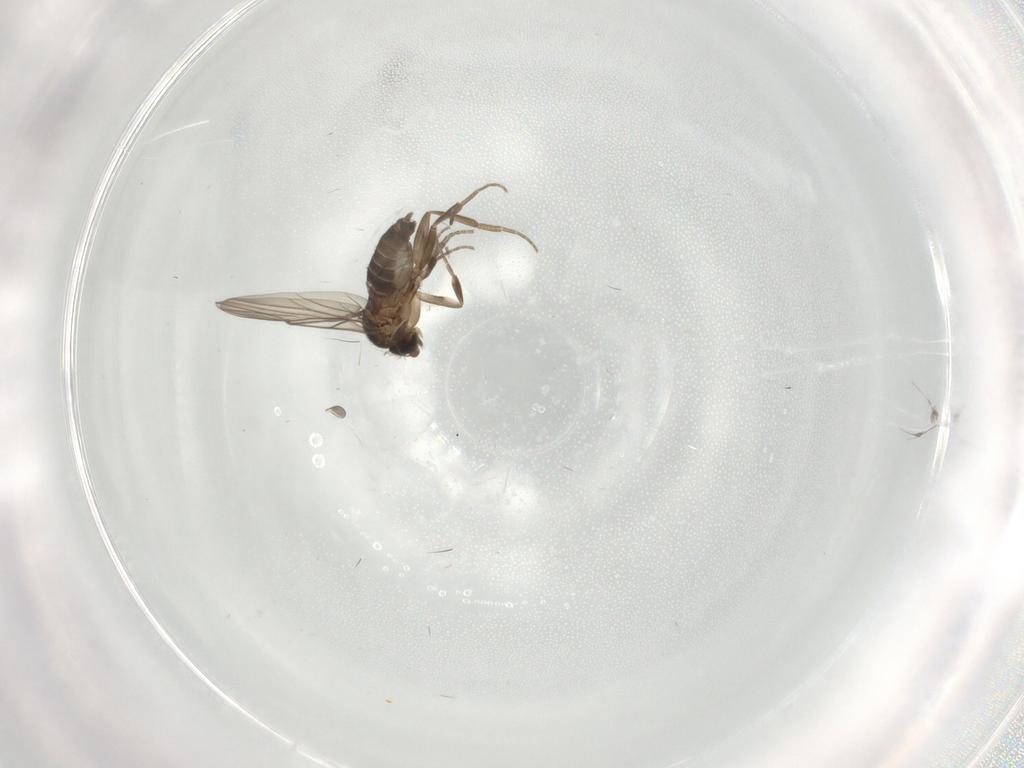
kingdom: Animalia
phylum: Arthropoda
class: Insecta
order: Diptera
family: Phoridae
